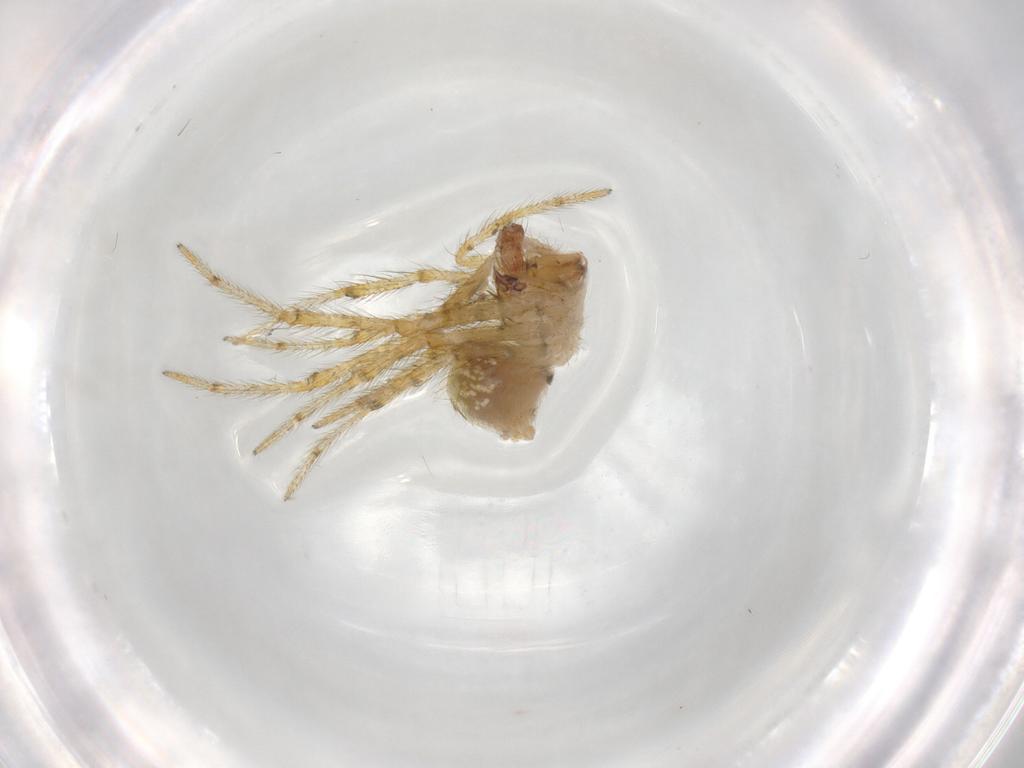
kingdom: Animalia
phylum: Arthropoda
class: Arachnida
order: Araneae
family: Theridiidae
